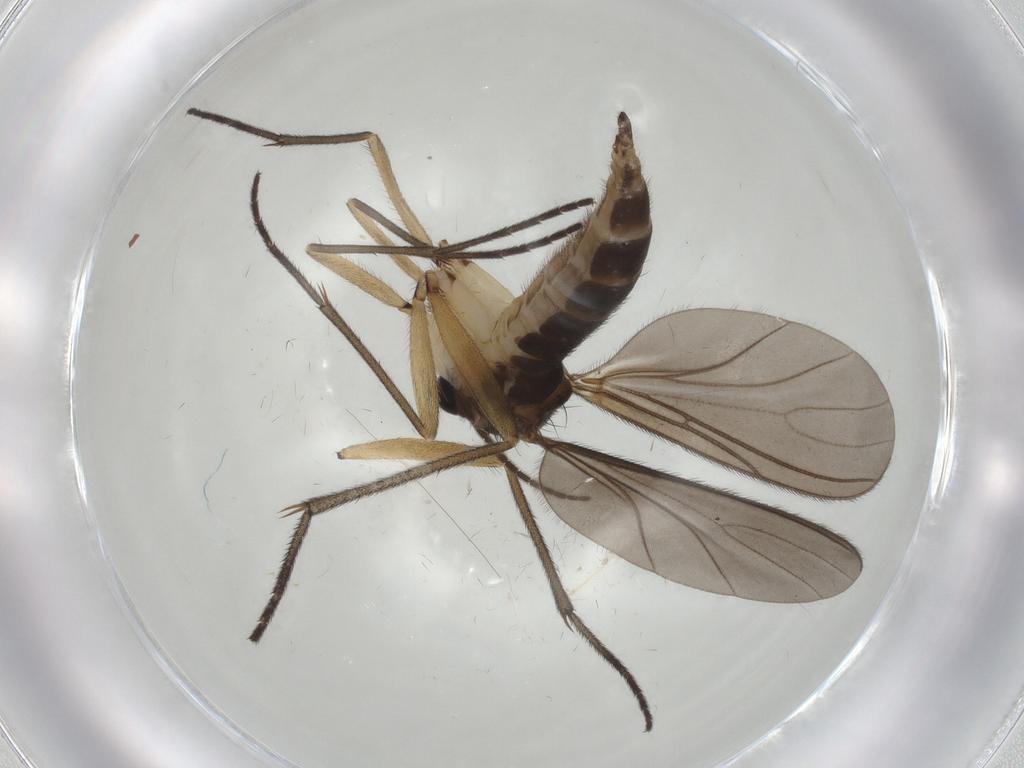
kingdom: Animalia
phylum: Arthropoda
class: Insecta
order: Diptera
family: Sciaridae
